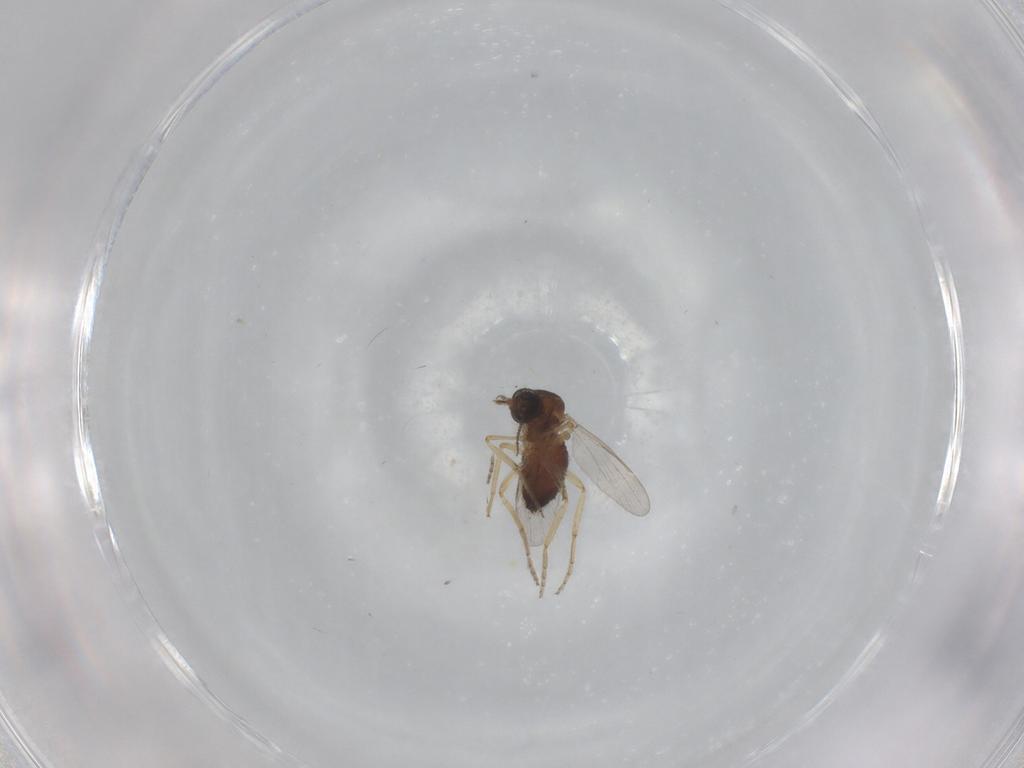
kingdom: Animalia
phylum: Arthropoda
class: Insecta
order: Diptera
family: Ceratopogonidae
